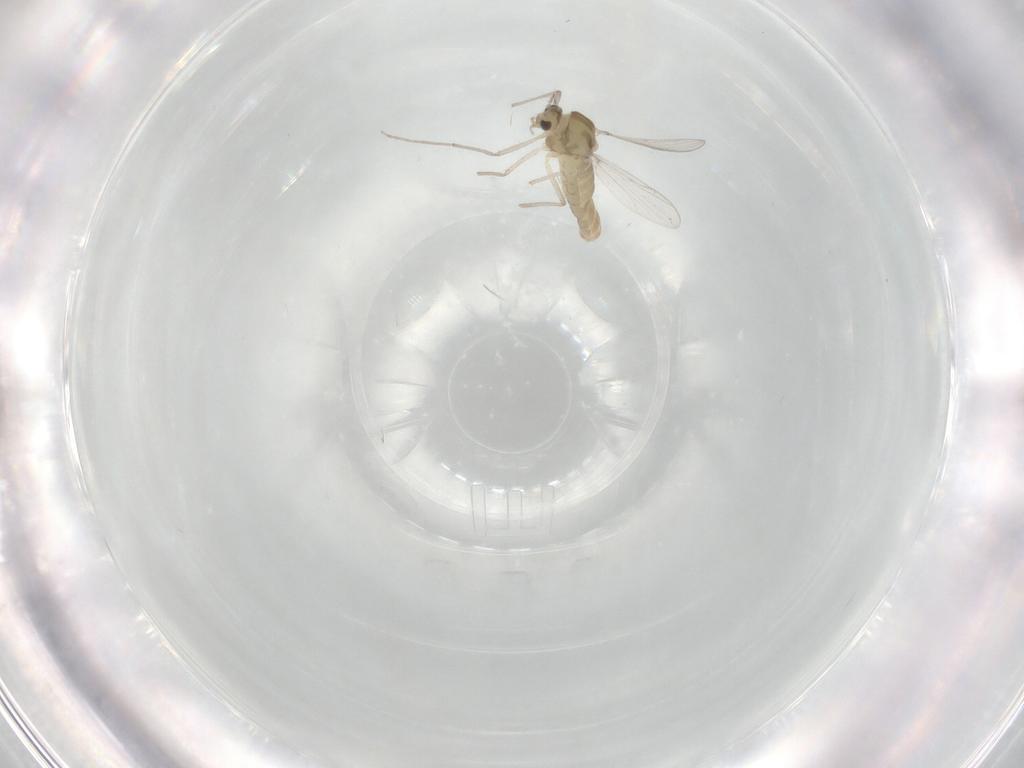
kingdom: Animalia
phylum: Arthropoda
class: Insecta
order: Diptera
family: Chironomidae
